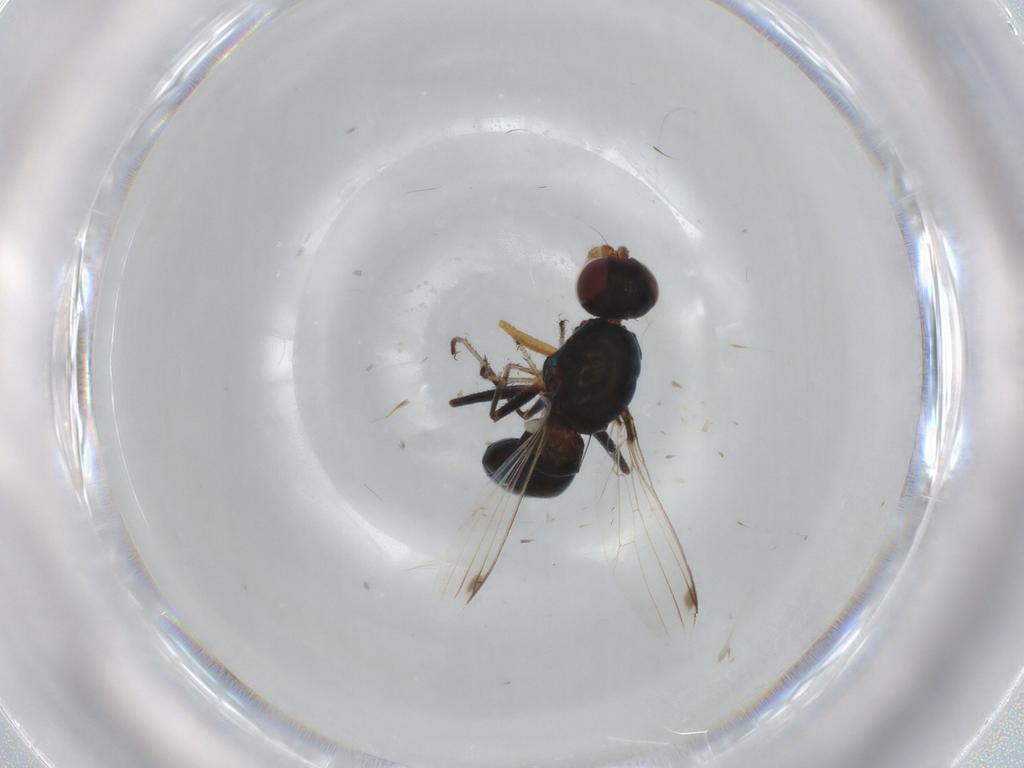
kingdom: Animalia
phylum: Arthropoda
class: Insecta
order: Diptera
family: Sepsidae
